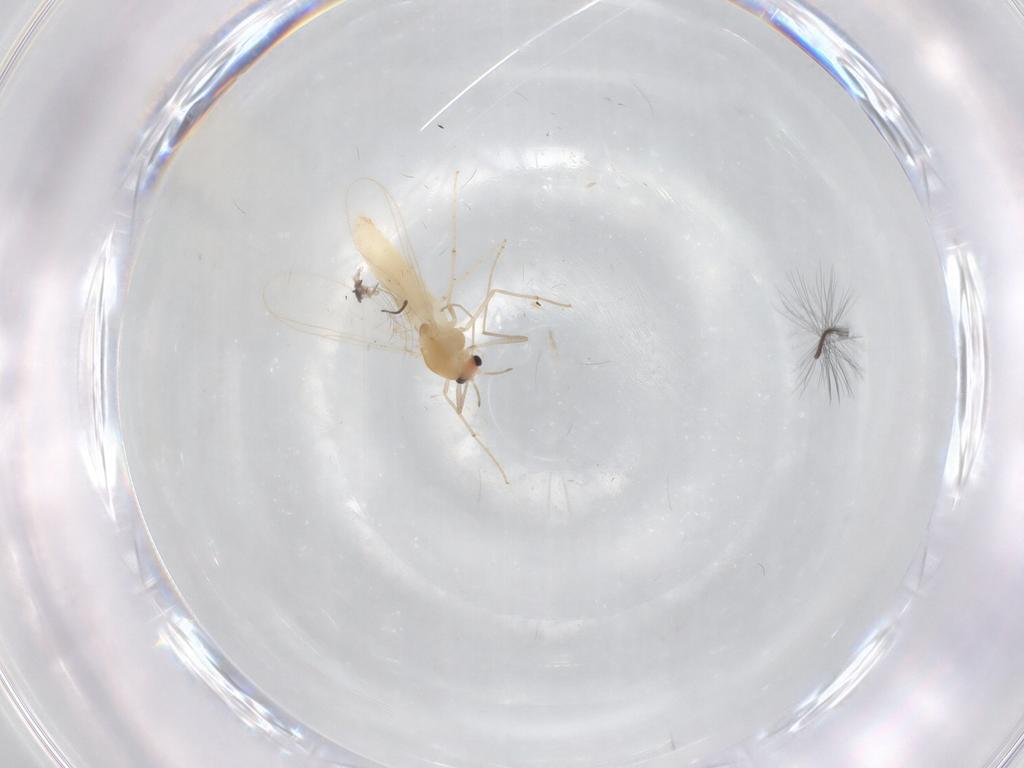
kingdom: Animalia
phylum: Arthropoda
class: Insecta
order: Diptera
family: Chironomidae
